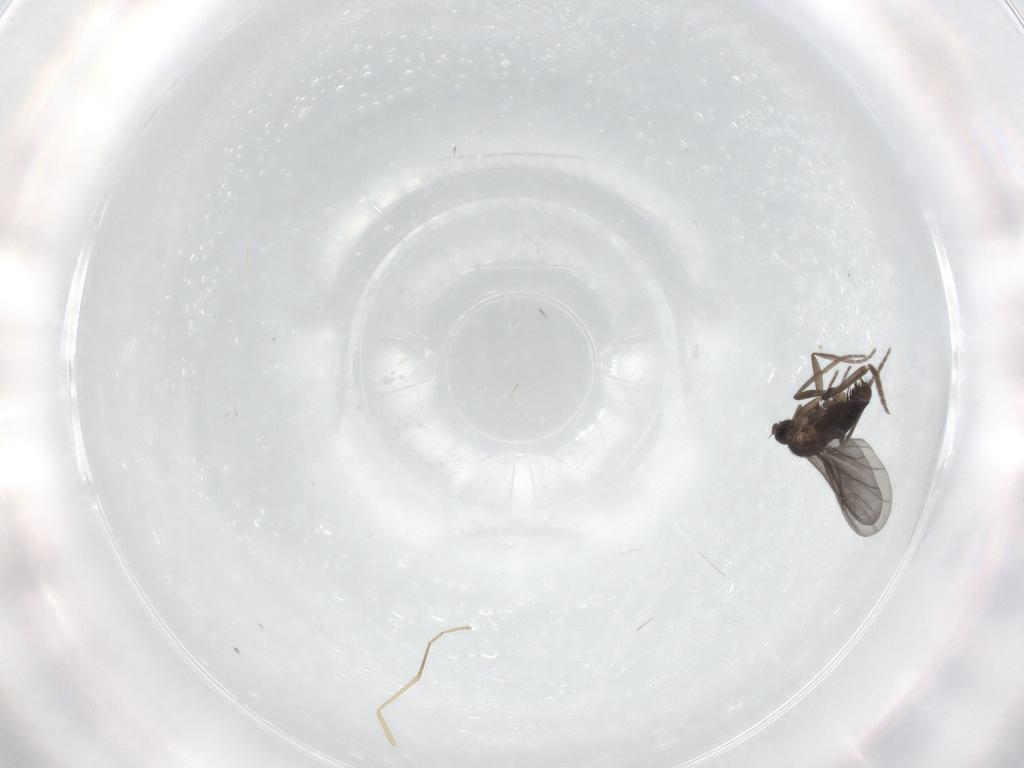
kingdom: Animalia
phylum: Arthropoda
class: Insecta
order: Diptera
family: Phoridae
